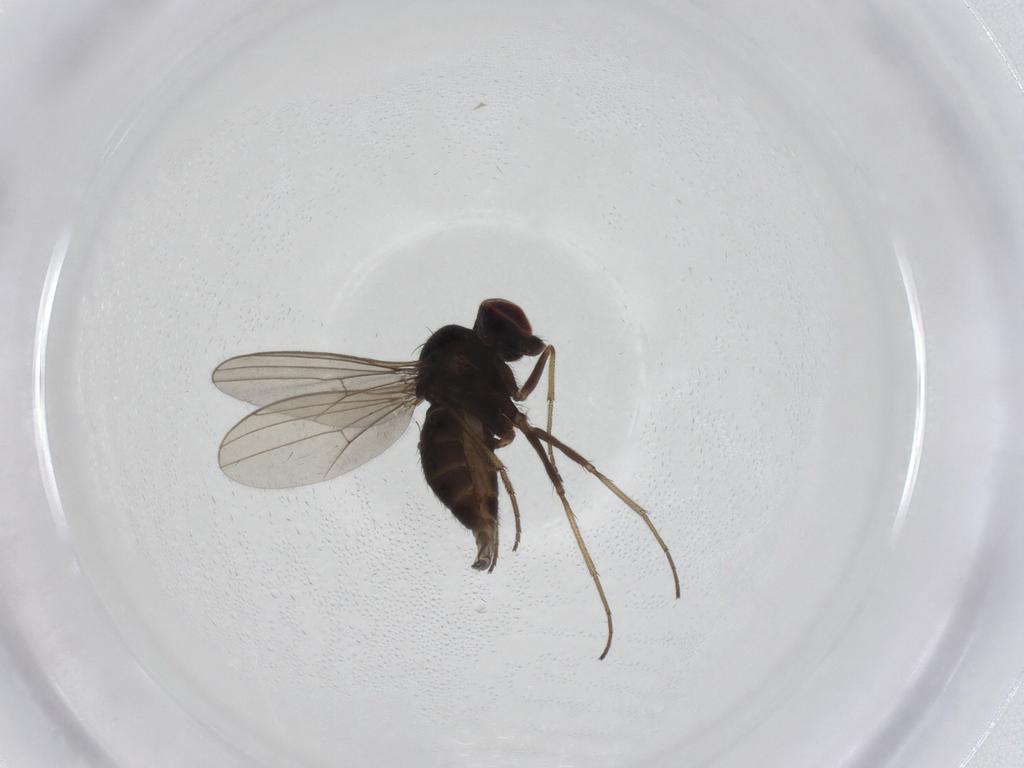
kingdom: Animalia
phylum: Arthropoda
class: Insecta
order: Diptera
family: Dolichopodidae
